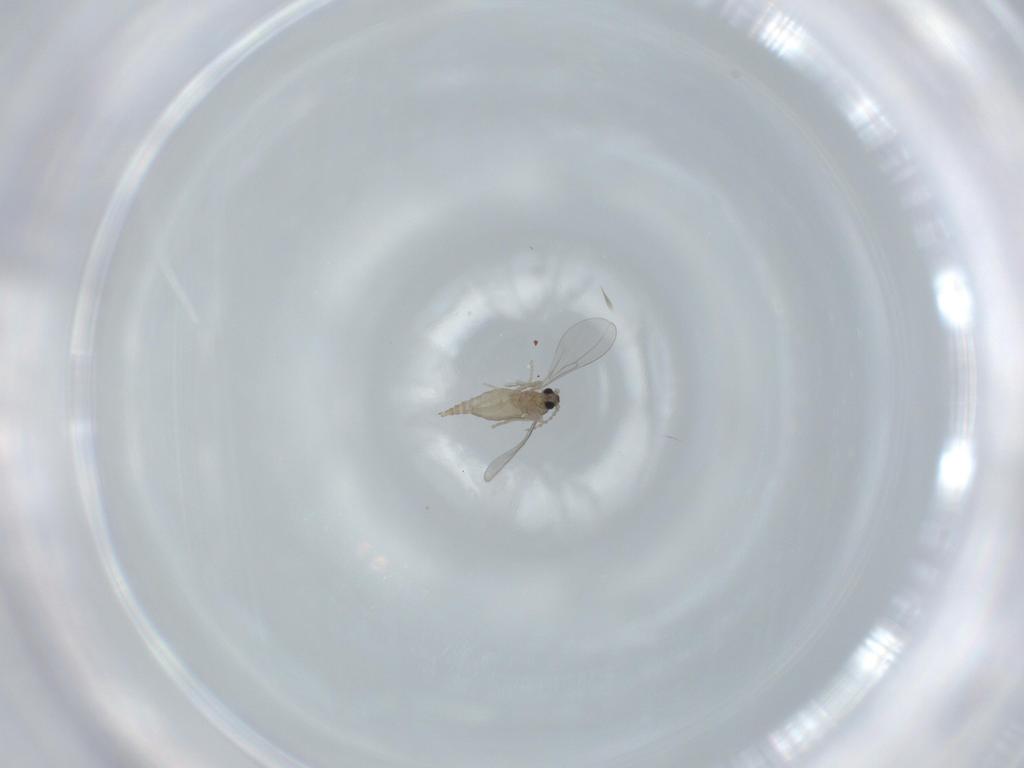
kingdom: Animalia
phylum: Arthropoda
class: Insecta
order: Diptera
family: Cecidomyiidae
